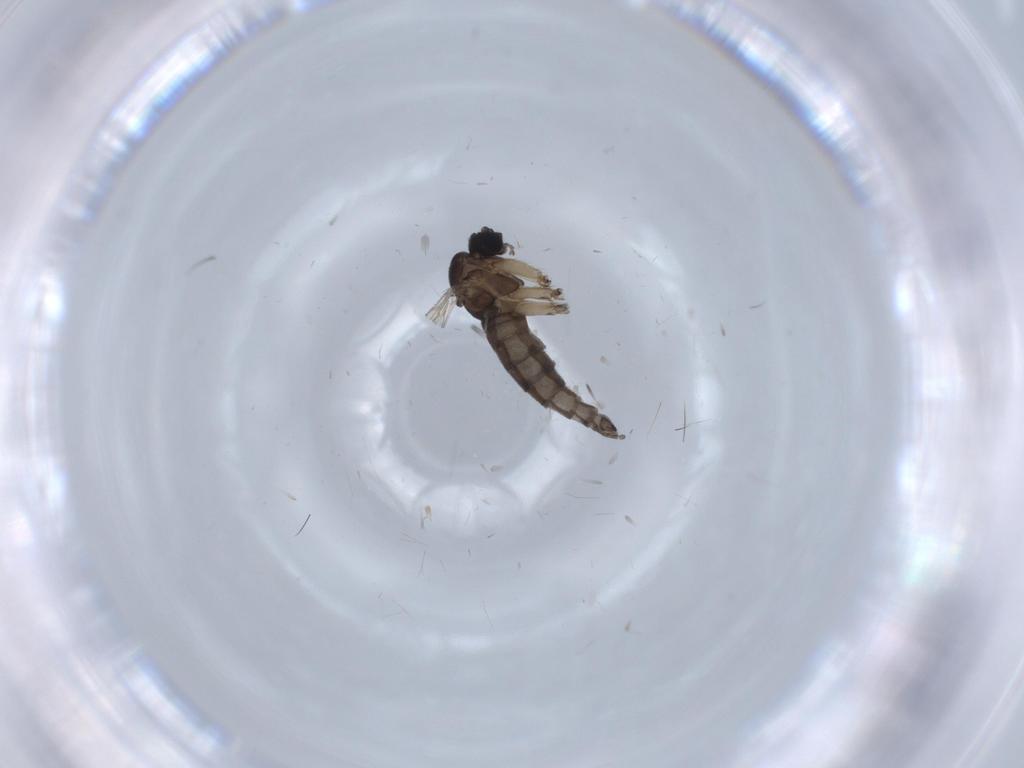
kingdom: Animalia
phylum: Arthropoda
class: Insecta
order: Diptera
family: Sciaridae
